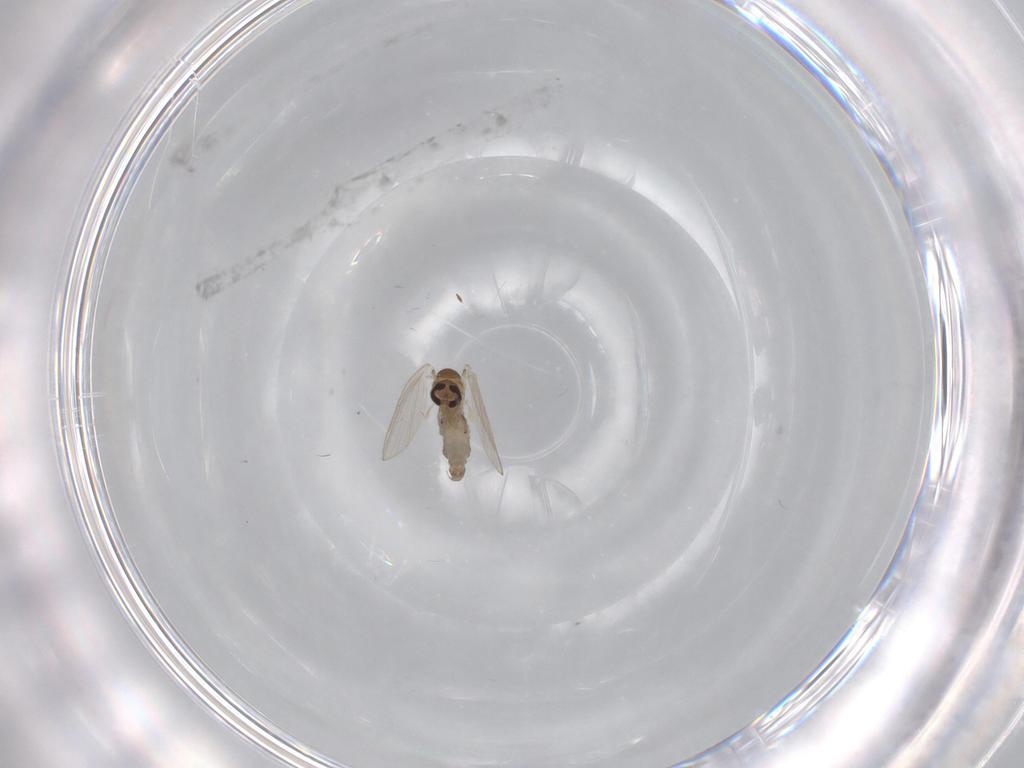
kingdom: Animalia
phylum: Arthropoda
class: Insecta
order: Diptera
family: Psychodidae
